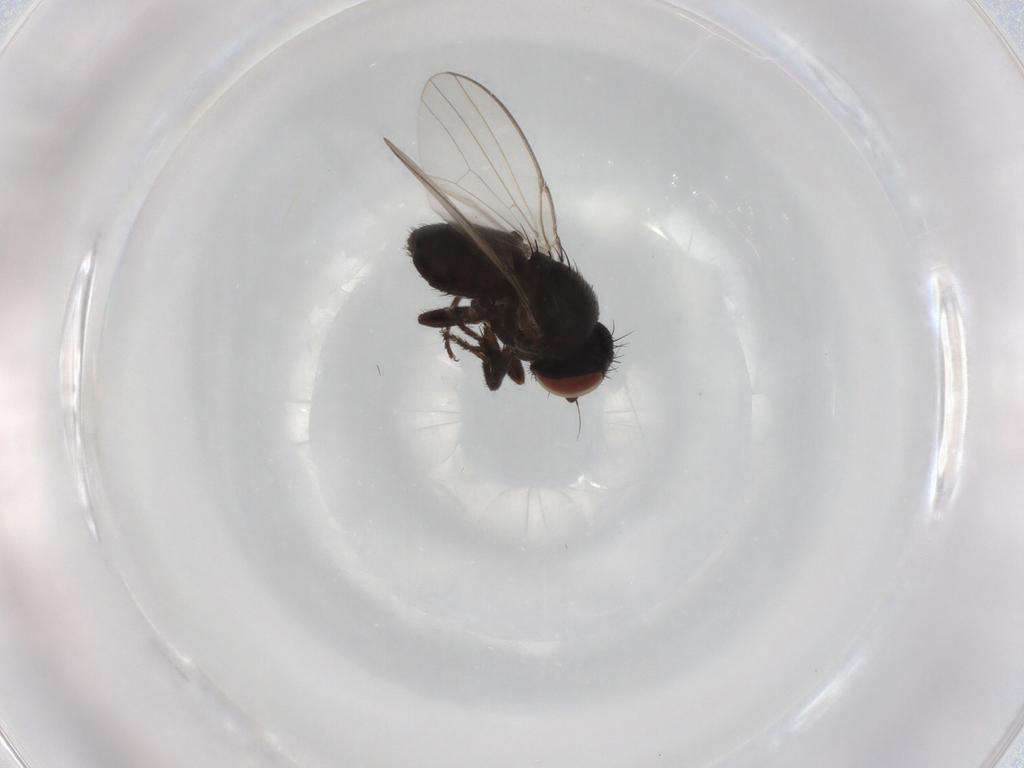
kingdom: Animalia
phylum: Arthropoda
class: Insecta
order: Diptera
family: Chloropidae
